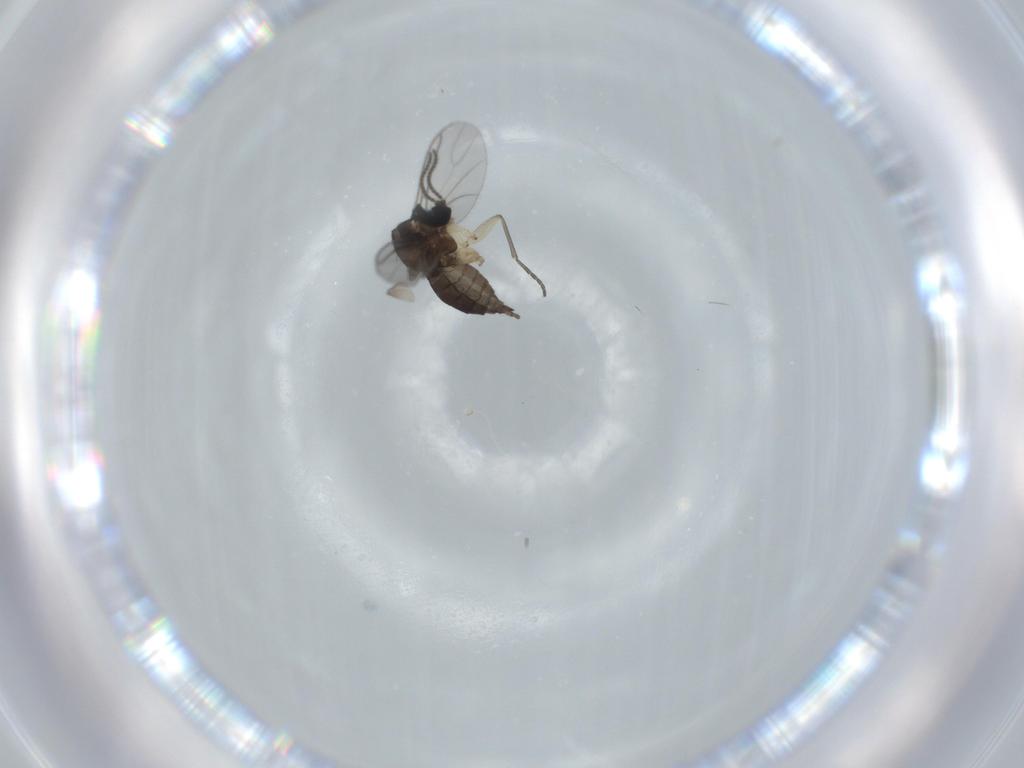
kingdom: Animalia
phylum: Arthropoda
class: Insecta
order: Diptera
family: Sciaridae
